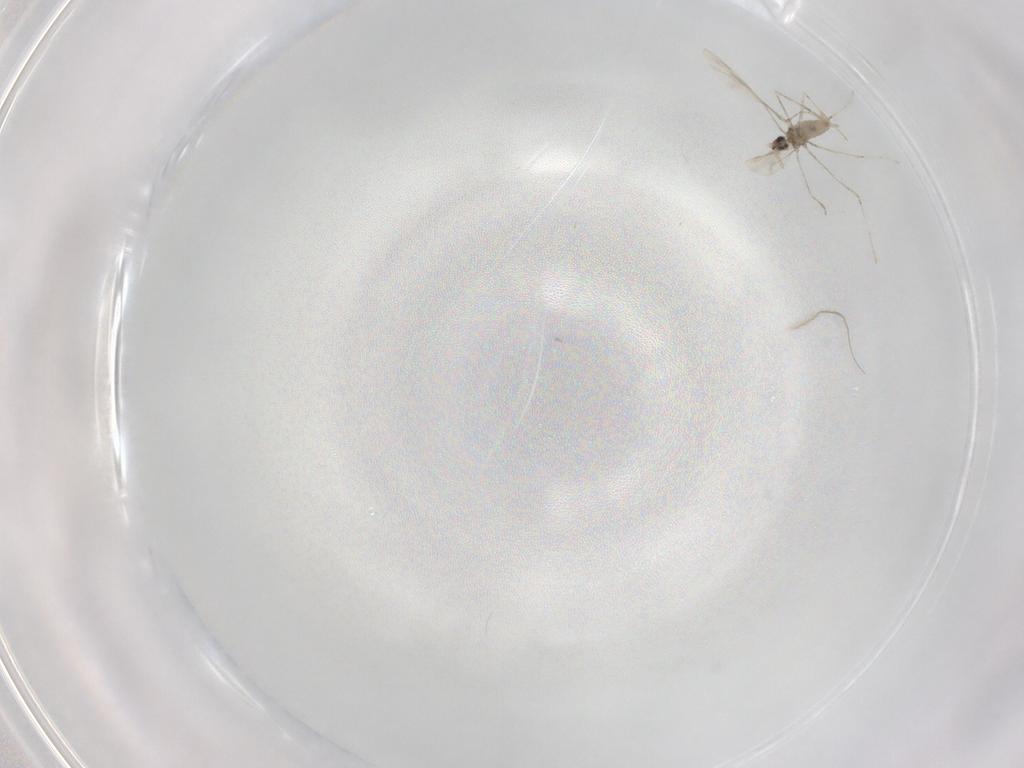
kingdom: Animalia
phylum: Arthropoda
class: Insecta
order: Diptera
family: Cecidomyiidae
